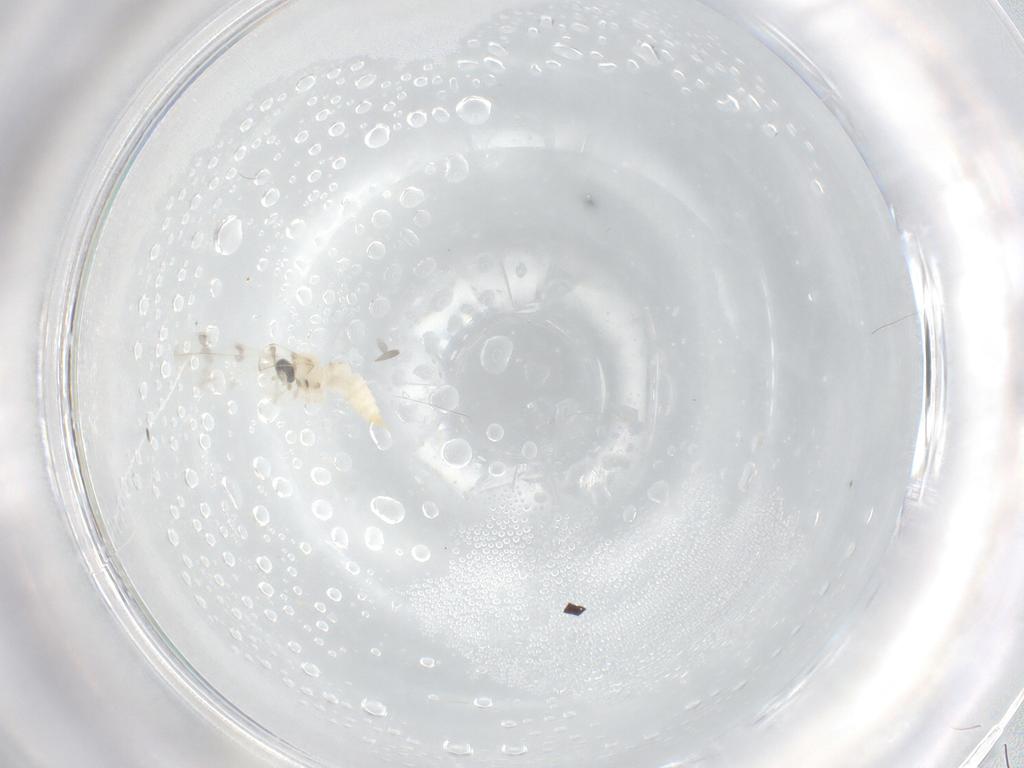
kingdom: Animalia
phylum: Arthropoda
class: Insecta
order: Diptera
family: Cecidomyiidae
